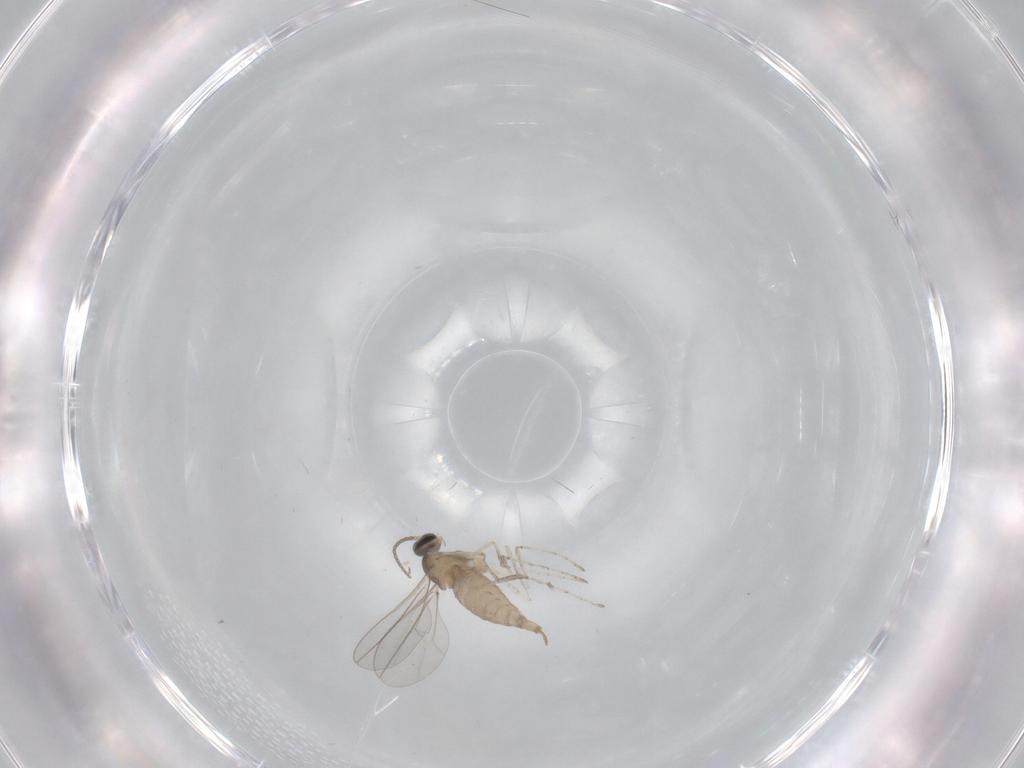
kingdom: Animalia
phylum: Arthropoda
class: Insecta
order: Diptera
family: Cecidomyiidae
